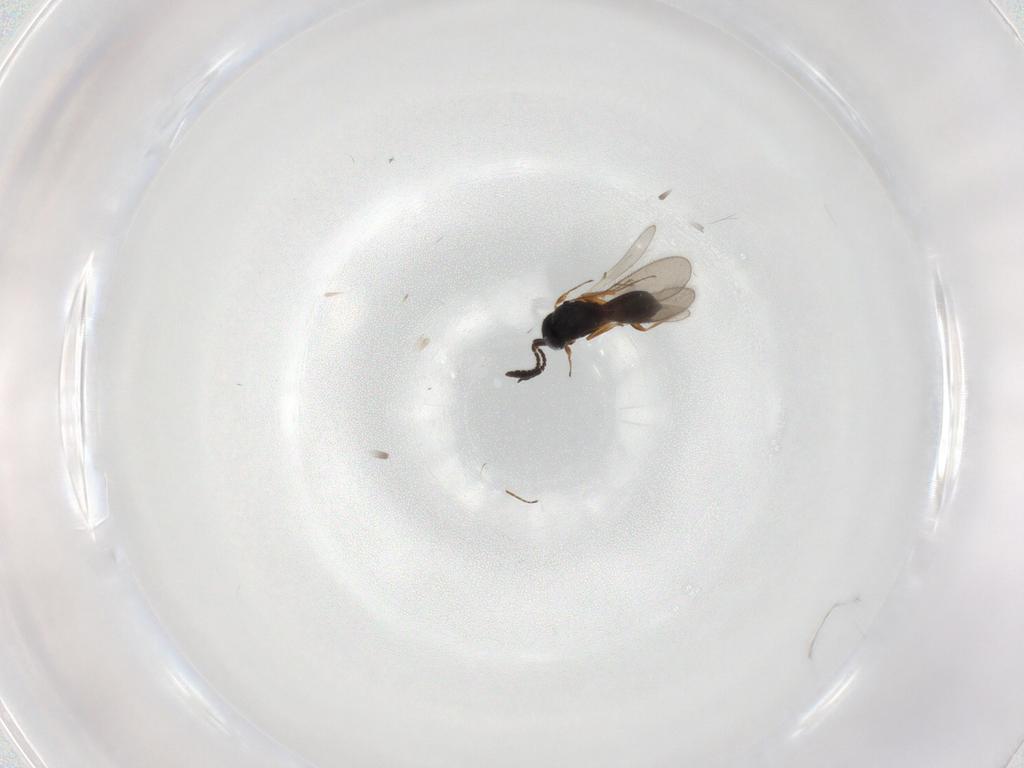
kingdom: Animalia
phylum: Arthropoda
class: Insecta
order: Hymenoptera
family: Scelionidae
